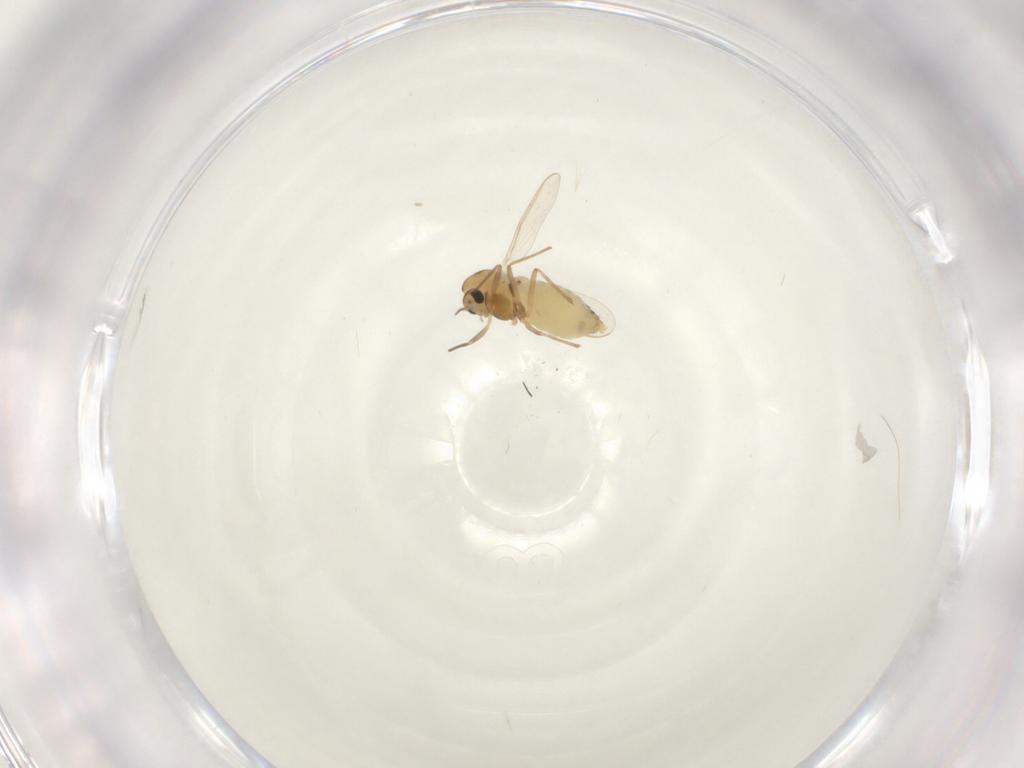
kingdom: Animalia
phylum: Arthropoda
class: Insecta
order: Diptera
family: Chironomidae
